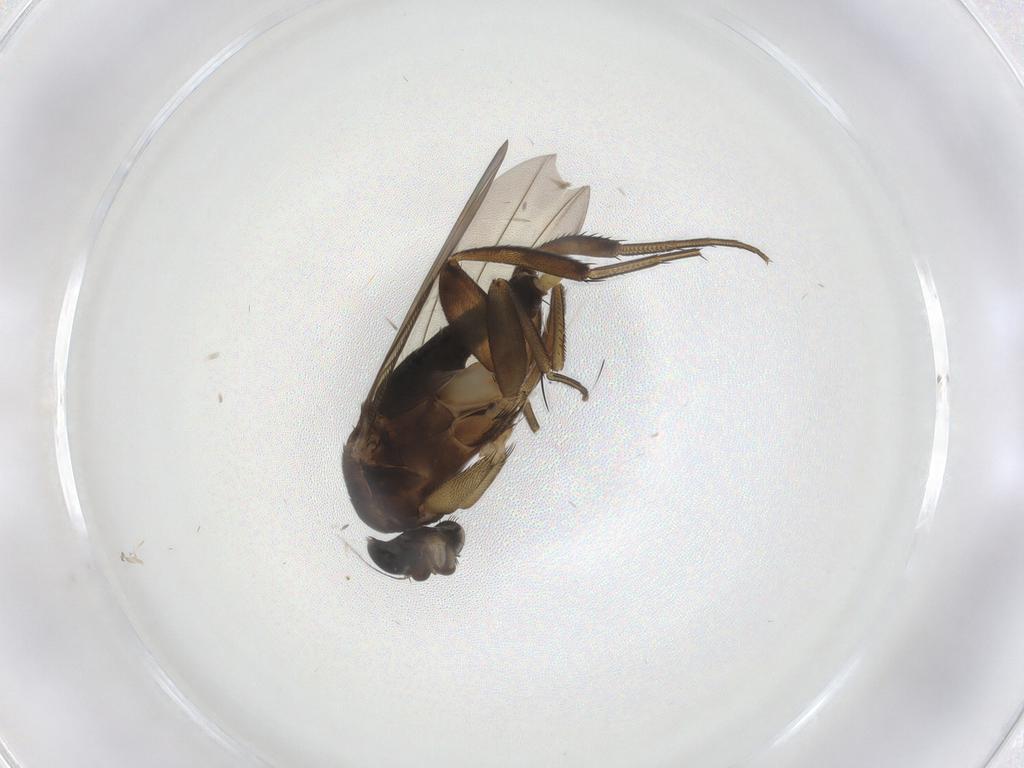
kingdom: Animalia
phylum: Arthropoda
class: Insecta
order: Diptera
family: Phoridae
